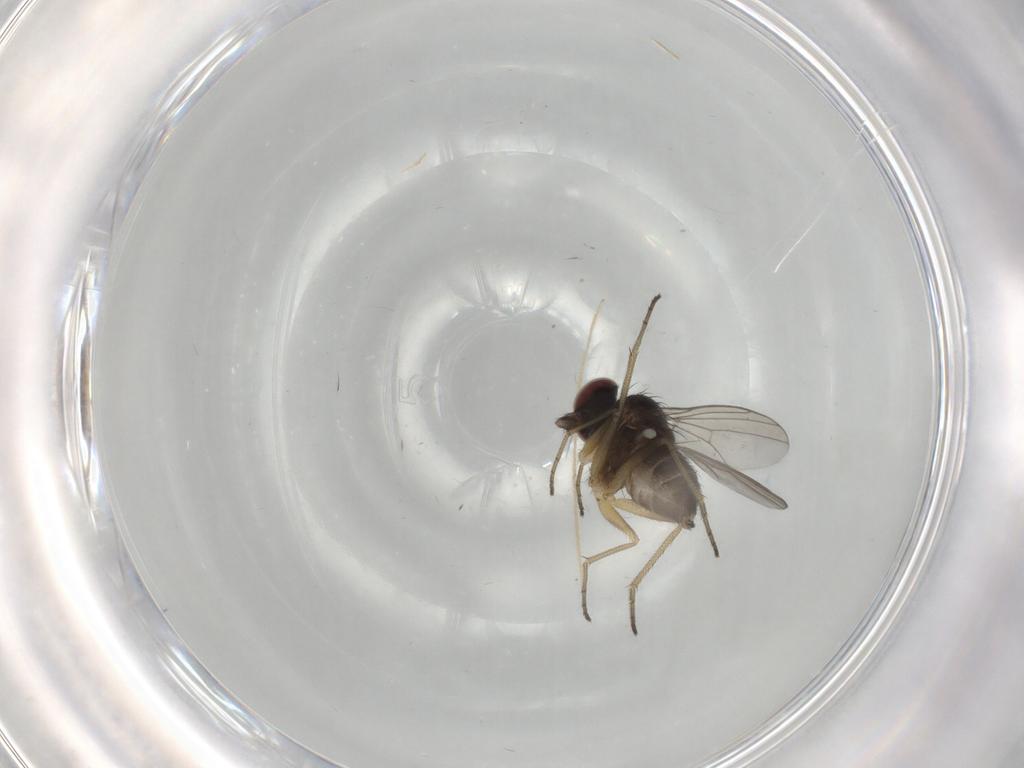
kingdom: Animalia
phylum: Arthropoda
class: Insecta
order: Diptera
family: Dolichopodidae
